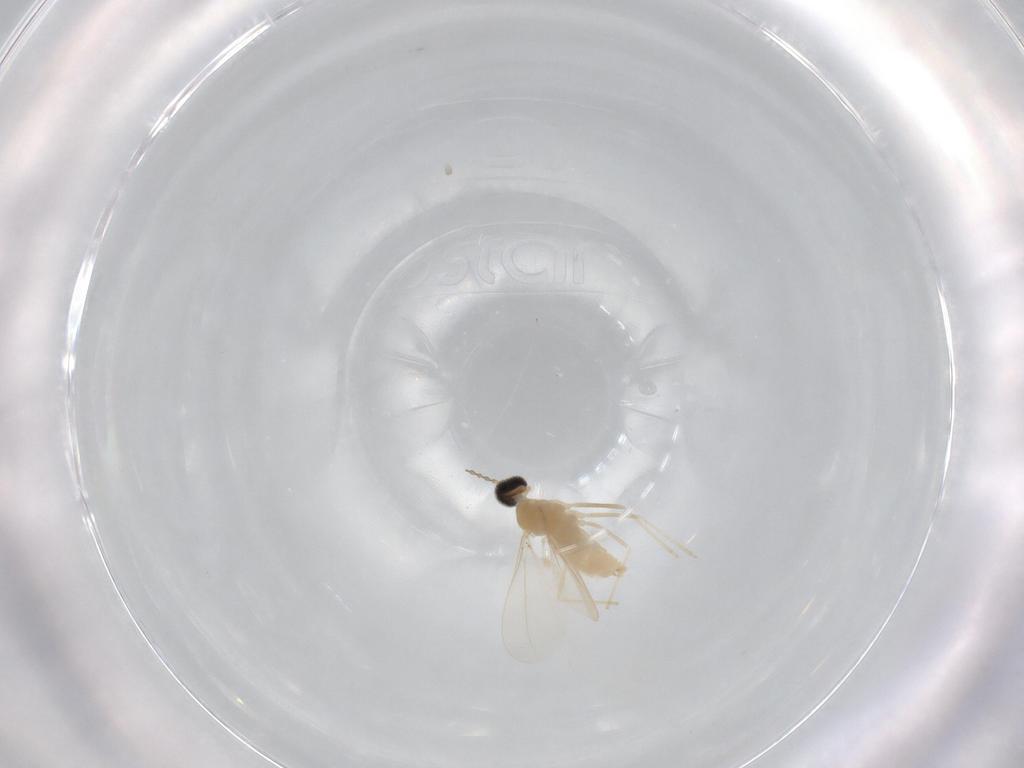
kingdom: Animalia
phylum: Arthropoda
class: Insecta
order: Diptera
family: Cecidomyiidae
